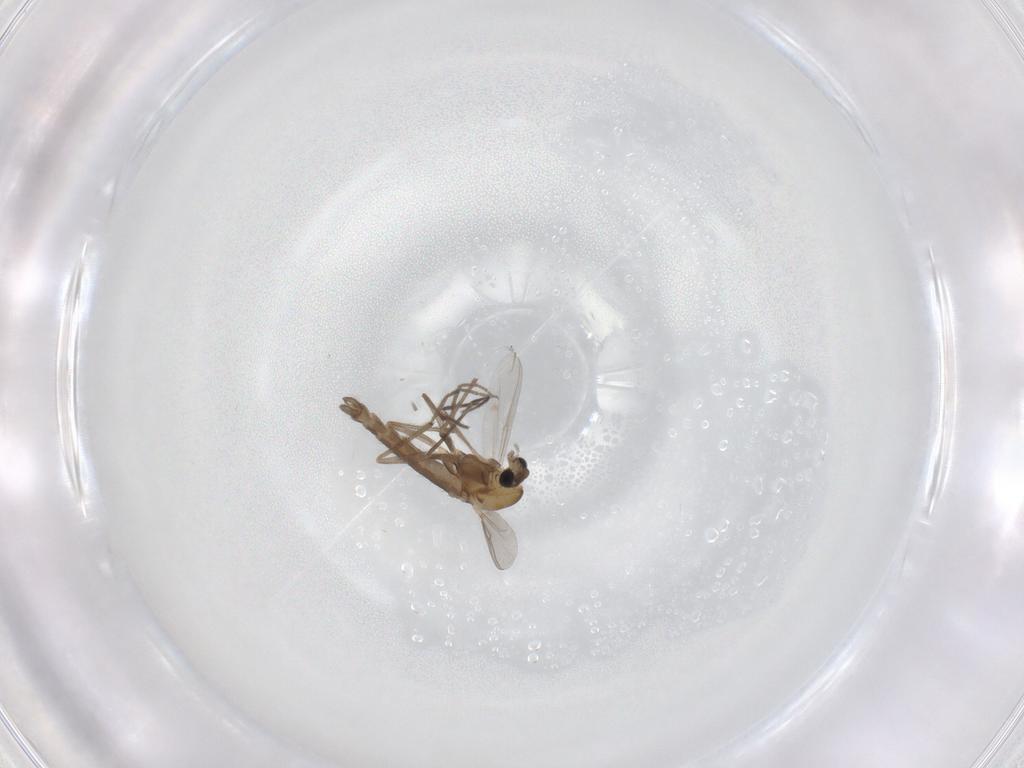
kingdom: Animalia
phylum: Arthropoda
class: Insecta
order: Diptera
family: Chironomidae
